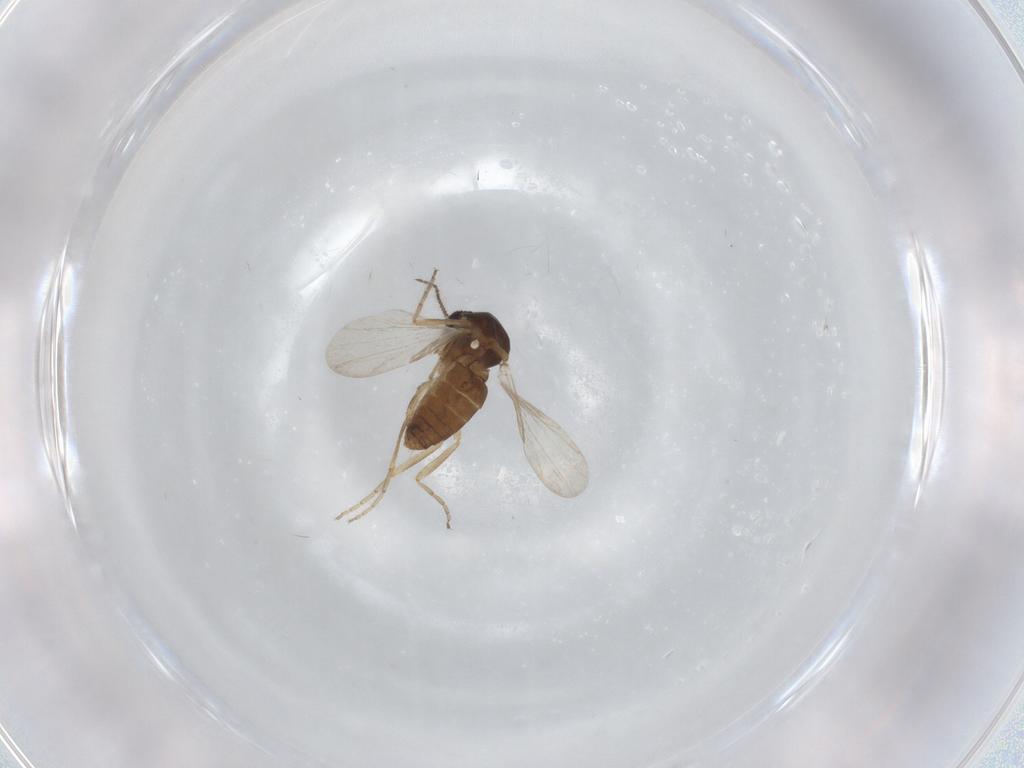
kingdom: Animalia
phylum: Arthropoda
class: Insecta
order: Diptera
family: Ceratopogonidae
